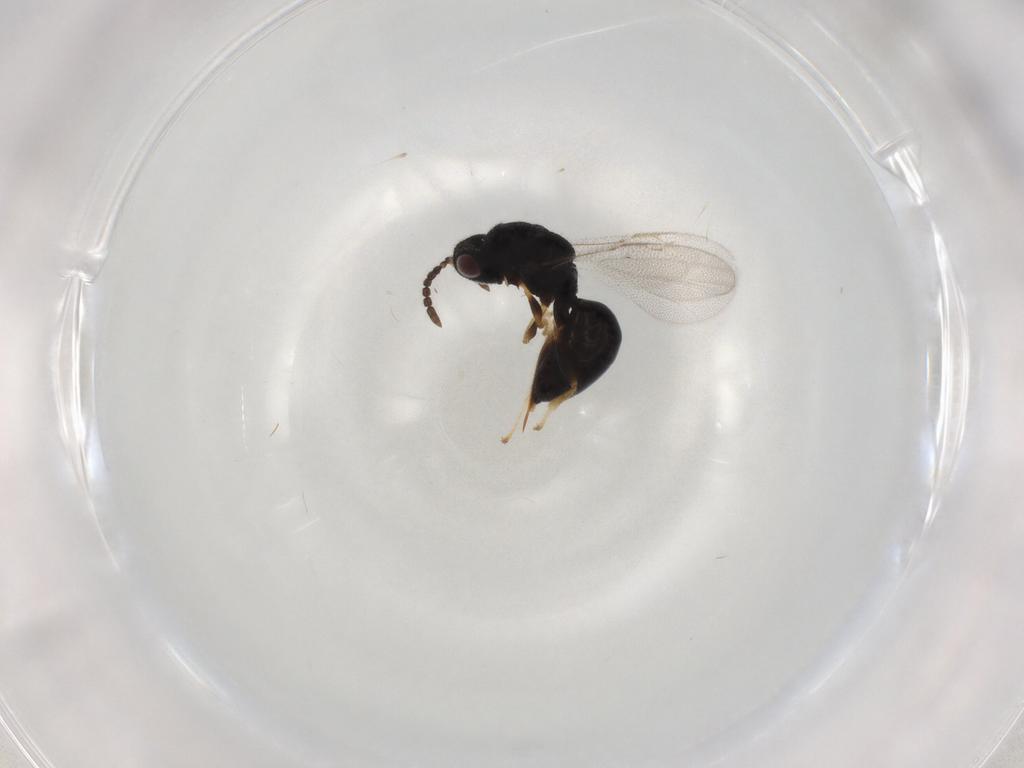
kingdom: Animalia
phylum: Arthropoda
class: Insecta
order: Hymenoptera
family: Eurytomidae
